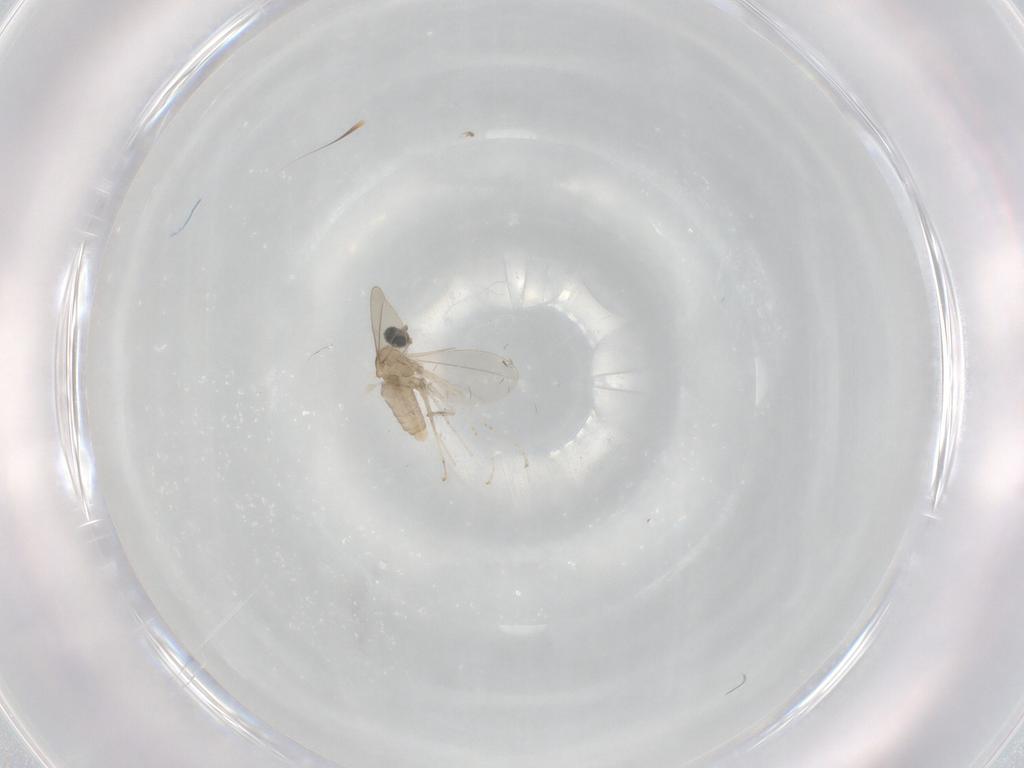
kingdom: Animalia
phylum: Arthropoda
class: Insecta
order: Diptera
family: Cecidomyiidae
